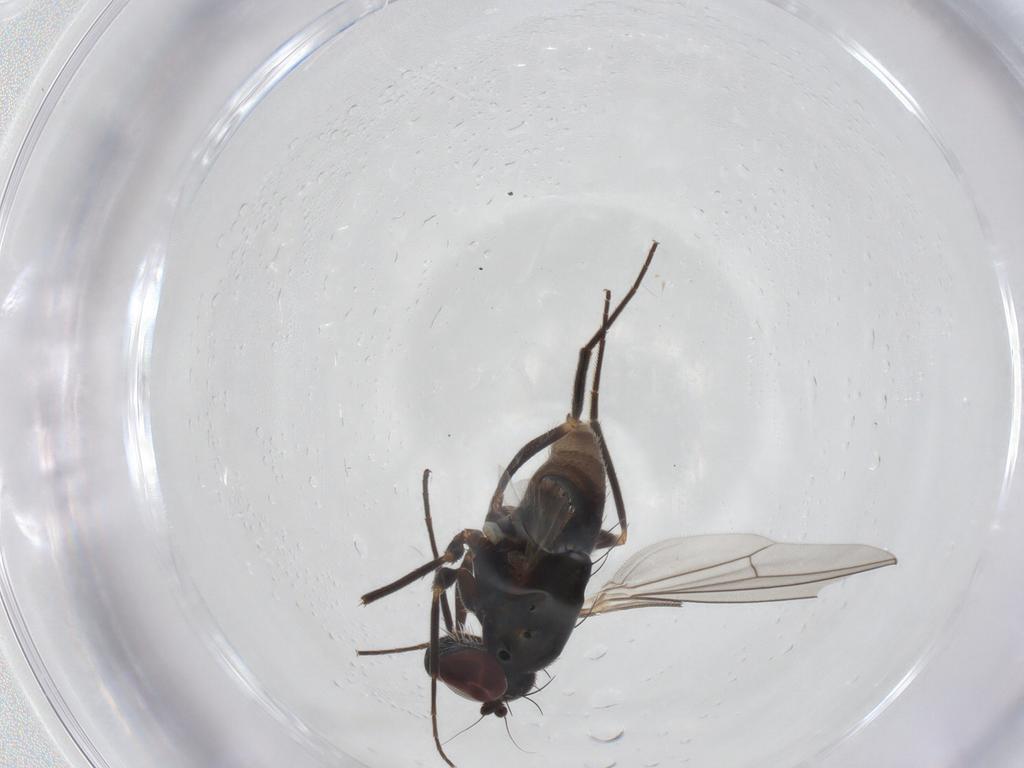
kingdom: Animalia
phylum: Arthropoda
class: Insecta
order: Diptera
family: Dolichopodidae
